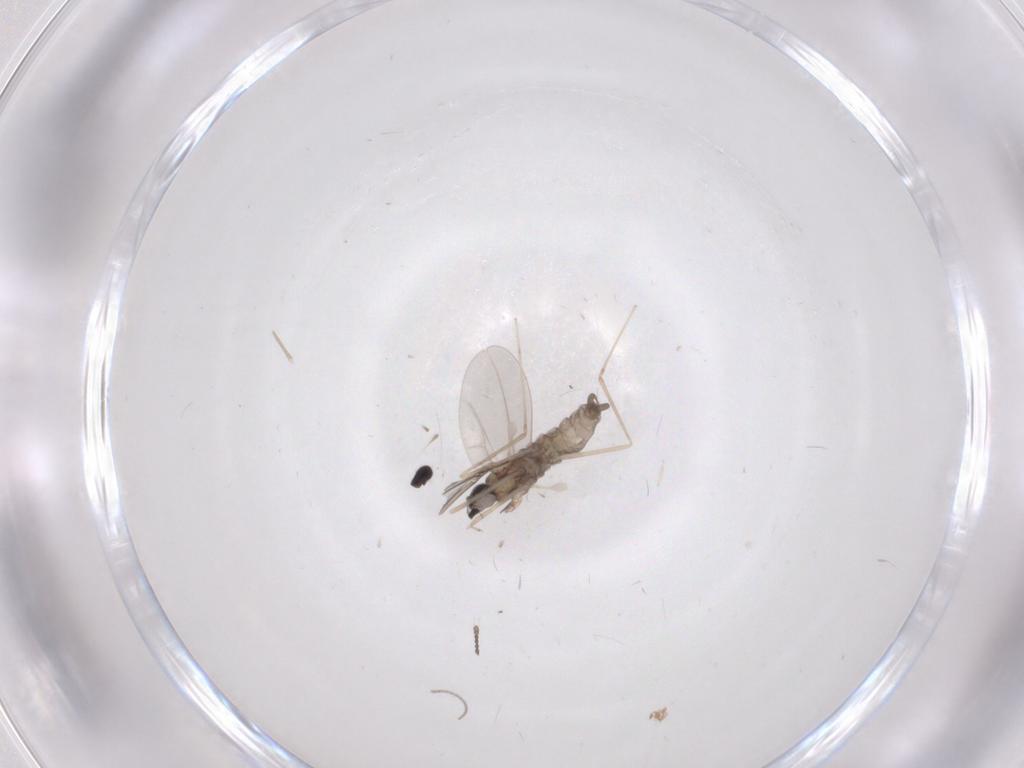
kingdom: Animalia
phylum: Arthropoda
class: Insecta
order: Diptera
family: Cecidomyiidae
